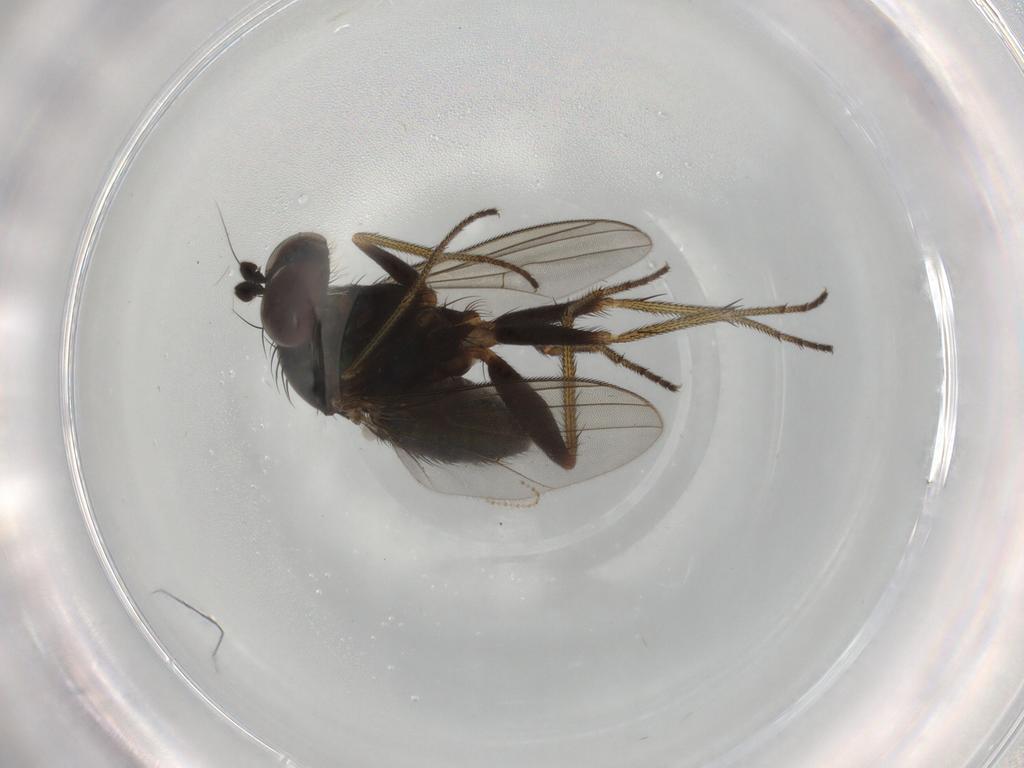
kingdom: Animalia
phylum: Arthropoda
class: Insecta
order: Diptera
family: Dolichopodidae
